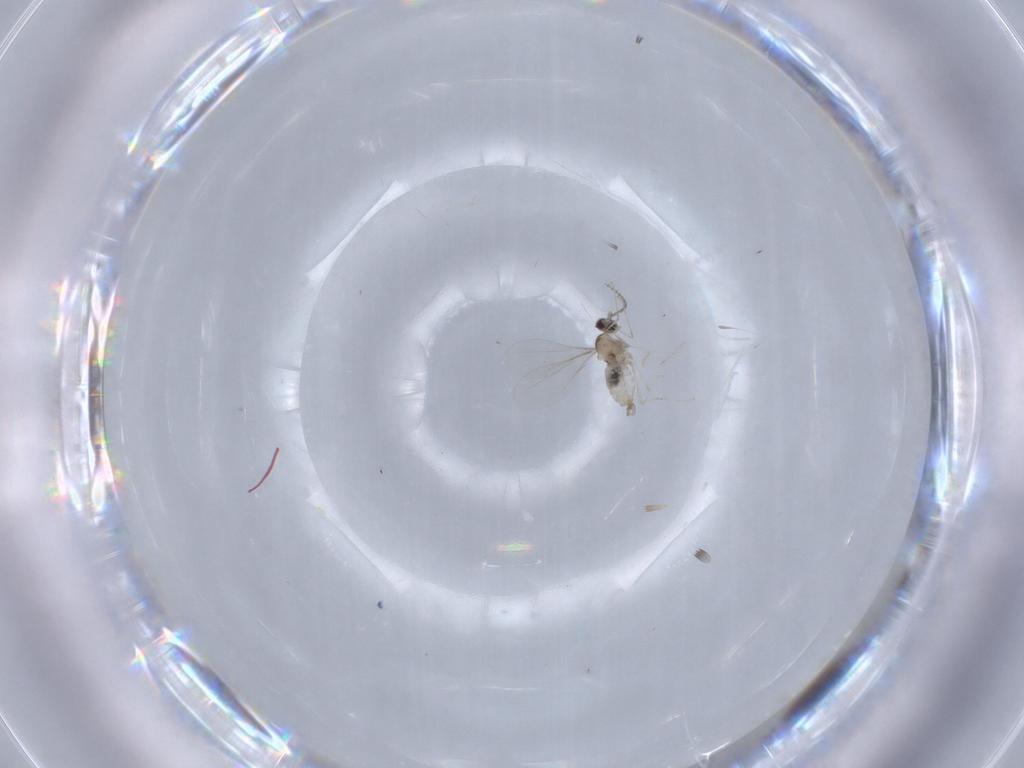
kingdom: Animalia
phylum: Arthropoda
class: Insecta
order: Diptera
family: Cecidomyiidae
